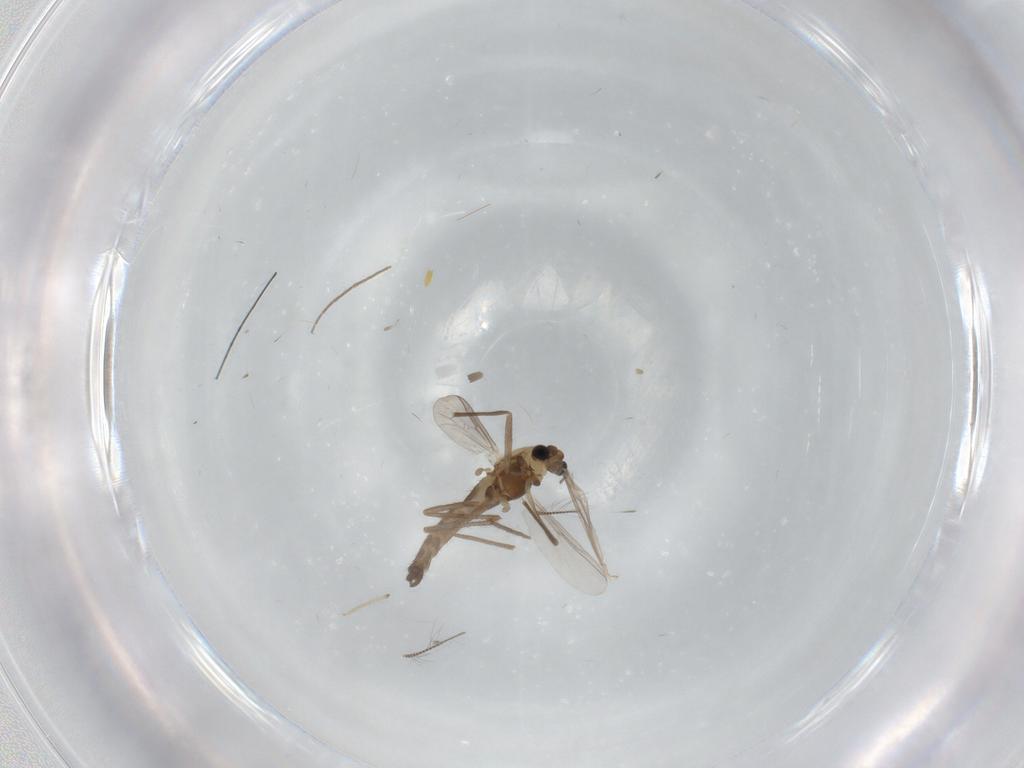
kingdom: Animalia
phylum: Arthropoda
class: Insecta
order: Diptera
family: Chironomidae
